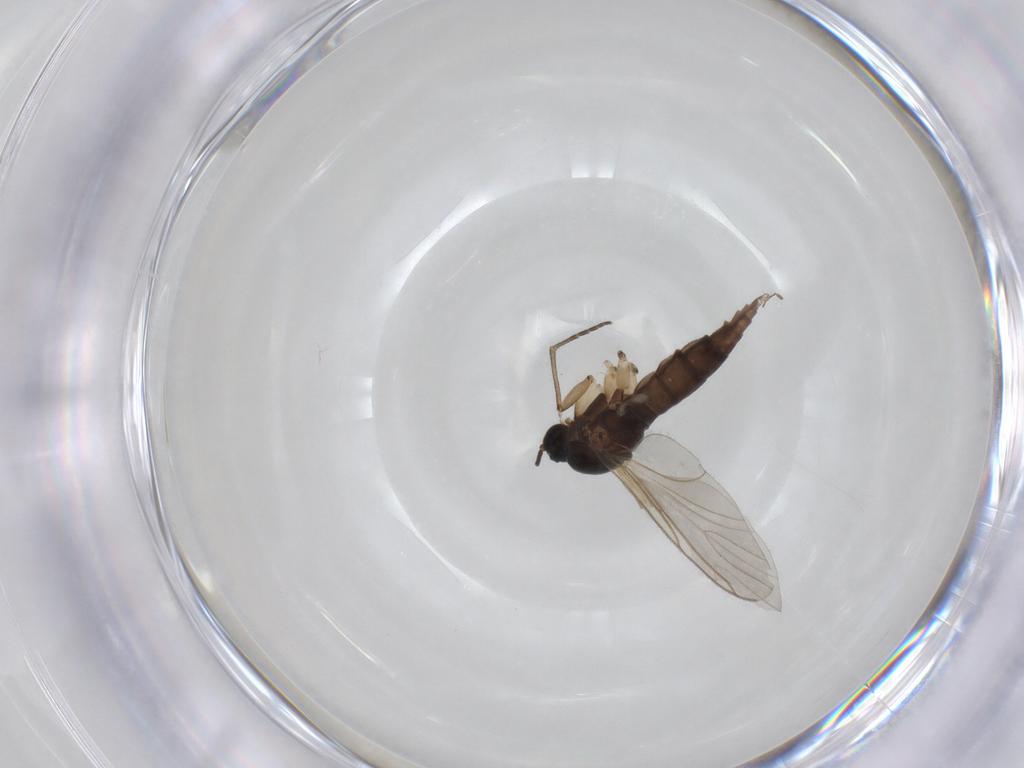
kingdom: Animalia
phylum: Arthropoda
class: Insecta
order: Diptera
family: Sciaridae
